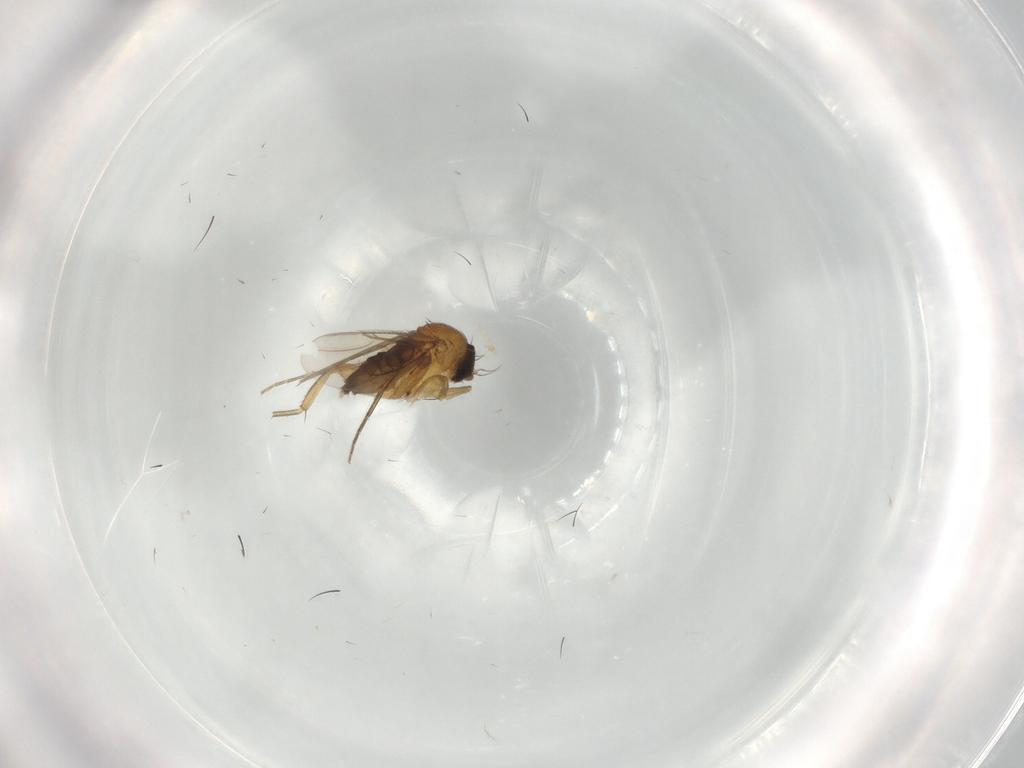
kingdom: Animalia
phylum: Arthropoda
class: Insecta
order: Diptera
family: Phoridae
